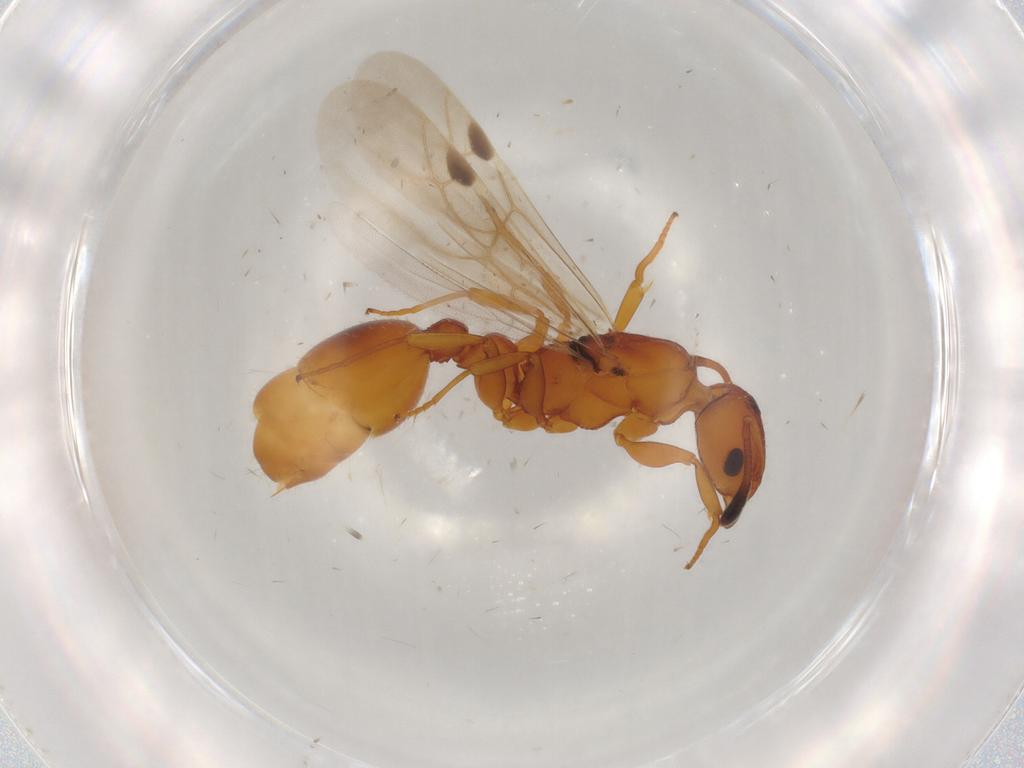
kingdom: Animalia
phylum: Arthropoda
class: Insecta
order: Hymenoptera
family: Formicidae
